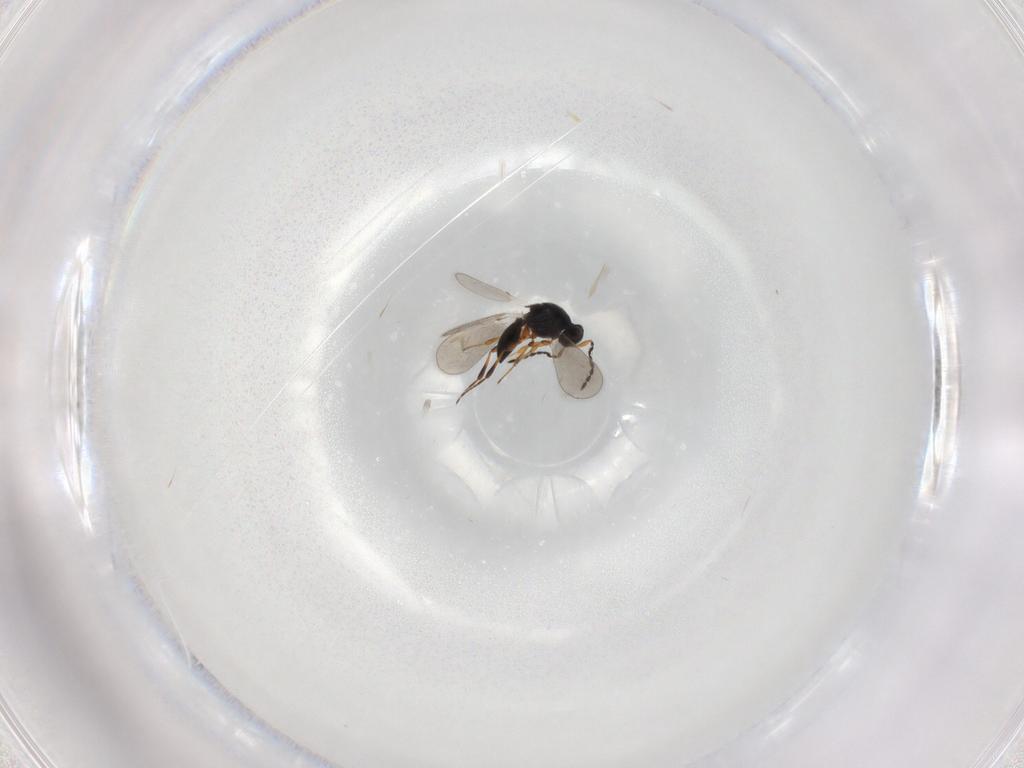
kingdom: Animalia
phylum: Arthropoda
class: Insecta
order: Hymenoptera
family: Platygastridae
